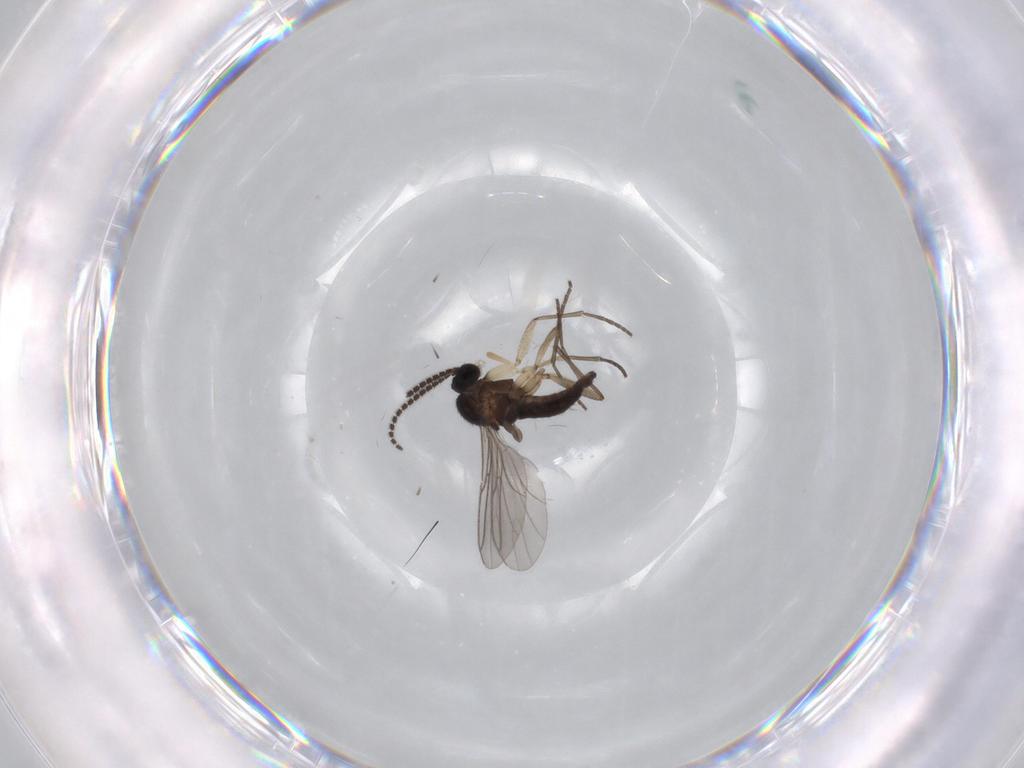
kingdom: Animalia
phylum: Arthropoda
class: Insecta
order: Diptera
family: Sciaridae
